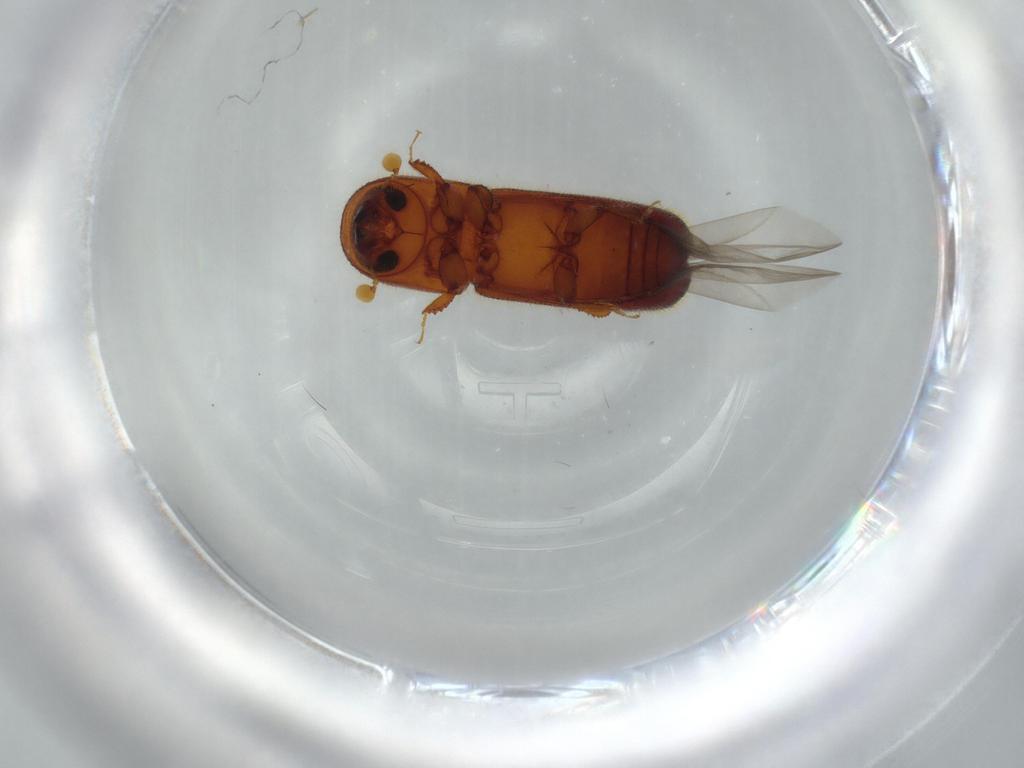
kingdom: Animalia
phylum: Arthropoda
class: Insecta
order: Coleoptera
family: Curculionidae
